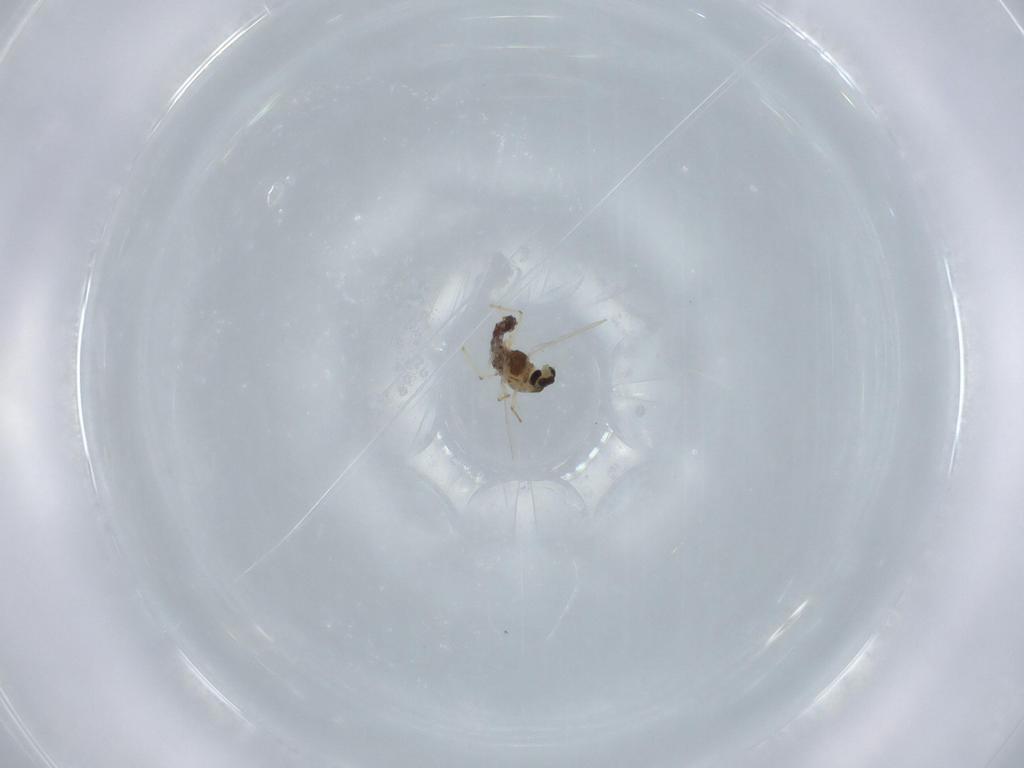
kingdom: Animalia
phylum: Arthropoda
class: Insecta
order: Diptera
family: Chironomidae
